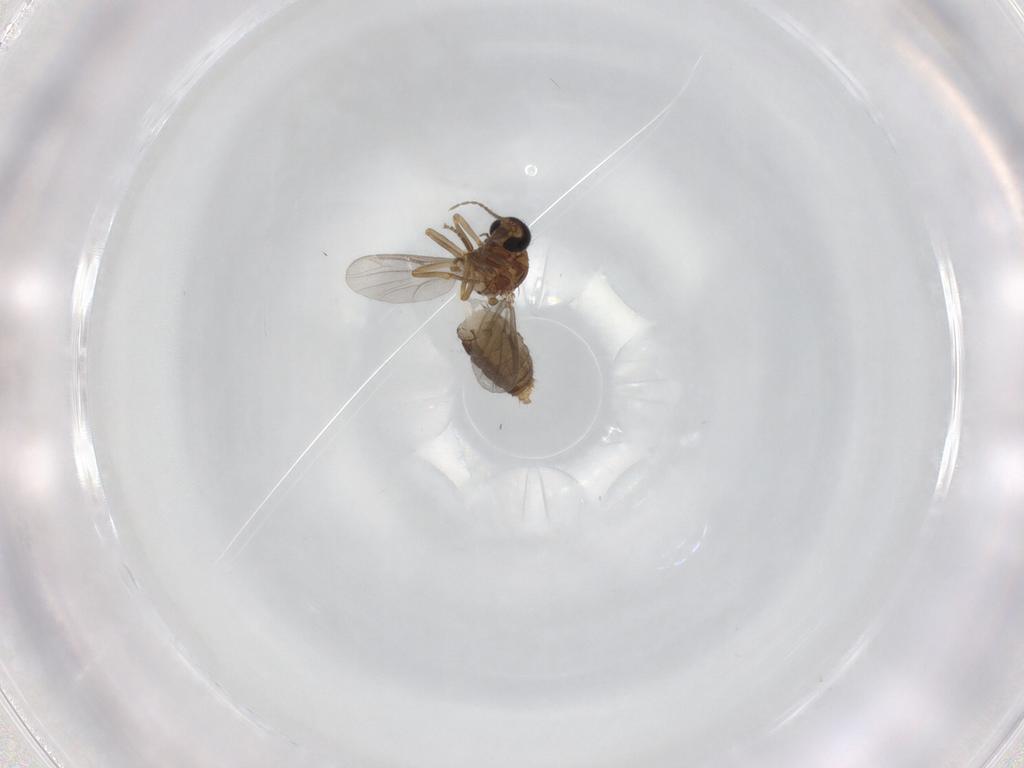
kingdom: Animalia
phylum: Arthropoda
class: Insecta
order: Diptera
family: Ceratopogonidae
